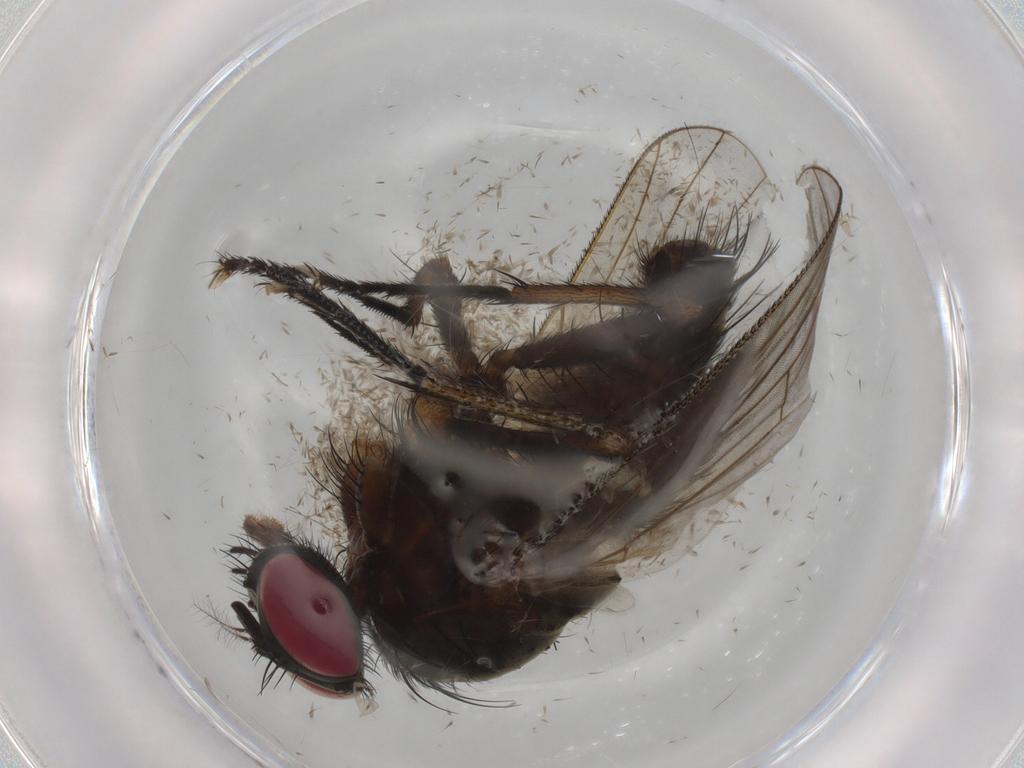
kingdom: Animalia
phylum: Arthropoda
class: Insecta
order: Diptera
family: Muscidae
